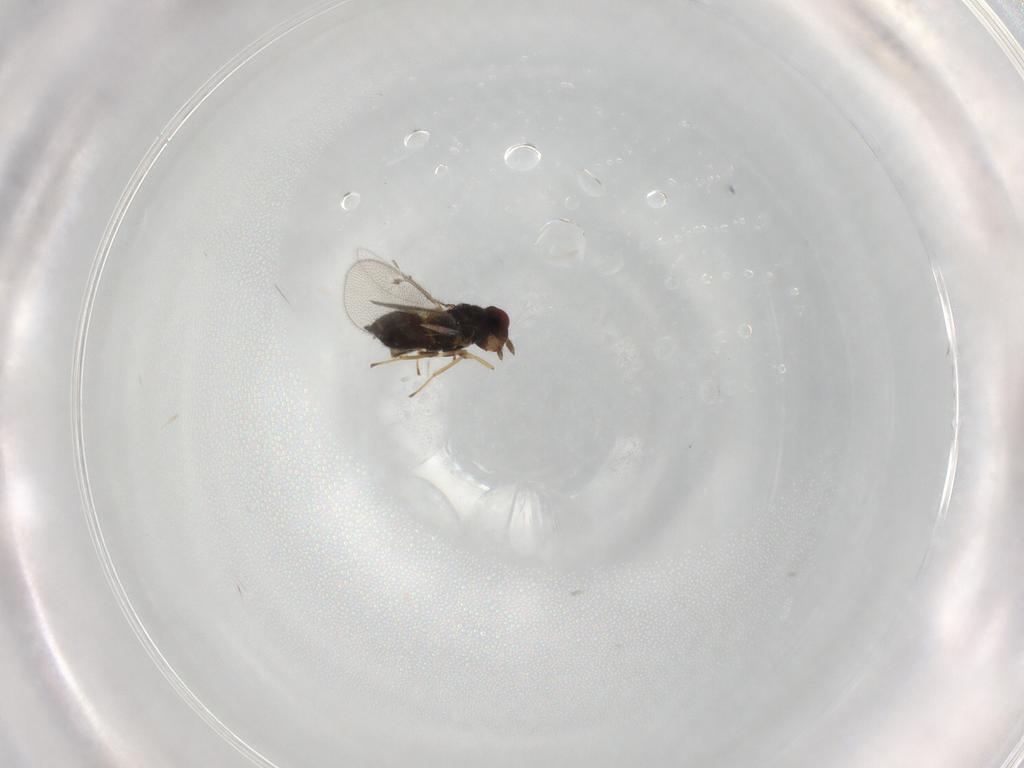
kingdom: Animalia
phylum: Arthropoda
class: Insecta
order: Hymenoptera
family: Eulophidae
